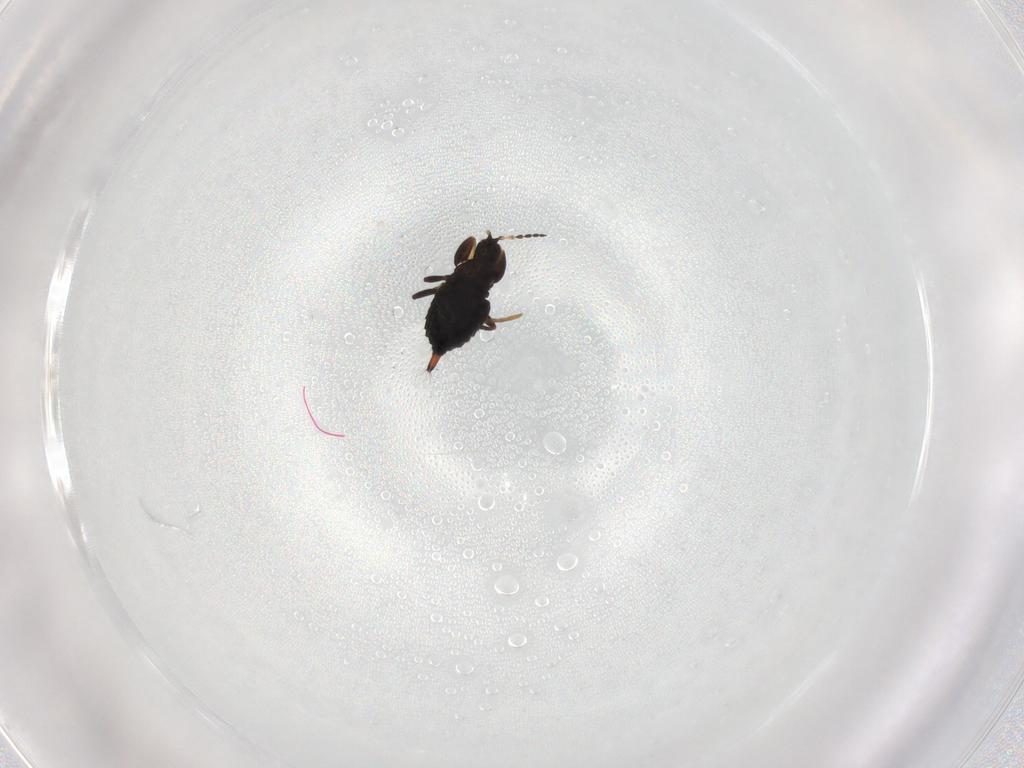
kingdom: Animalia
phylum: Arthropoda
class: Insecta
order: Thysanoptera
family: Phlaeothripidae
